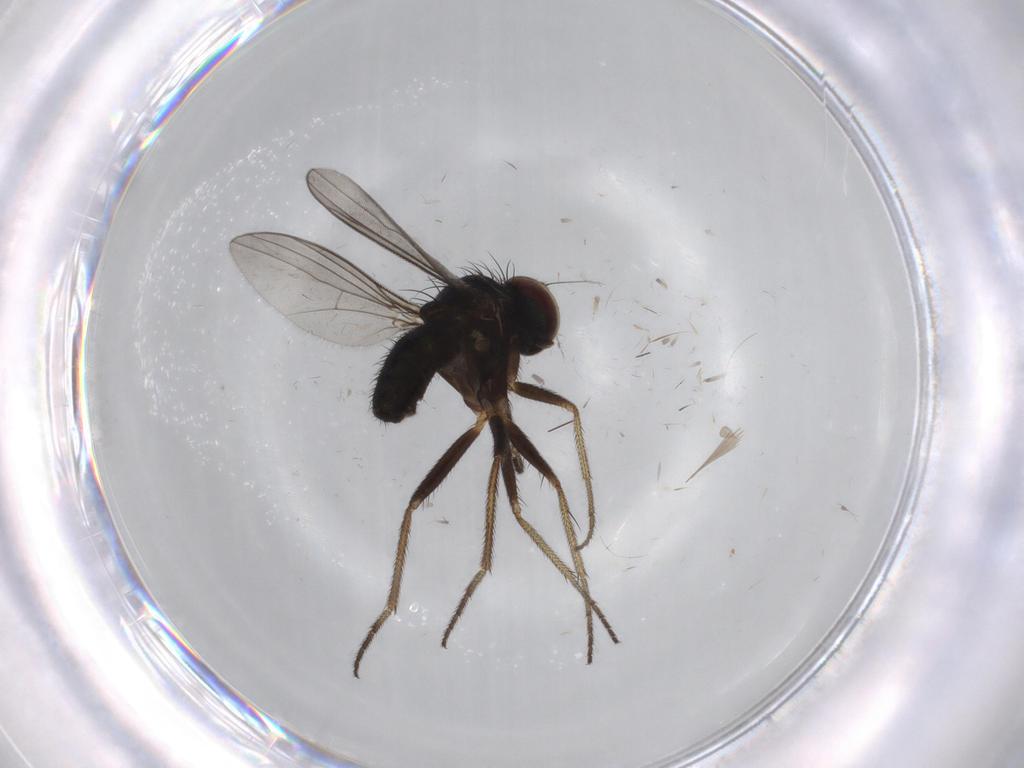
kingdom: Animalia
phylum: Arthropoda
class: Insecta
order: Diptera
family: Dolichopodidae
